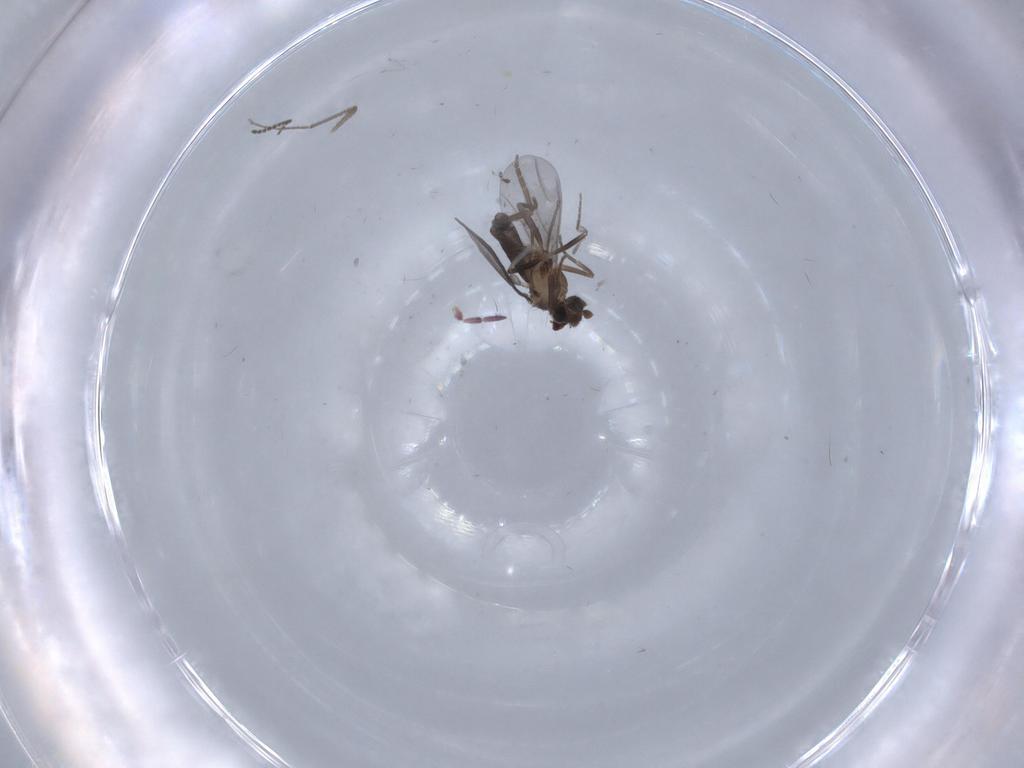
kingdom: Animalia
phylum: Arthropoda
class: Insecta
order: Diptera
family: Chironomidae
